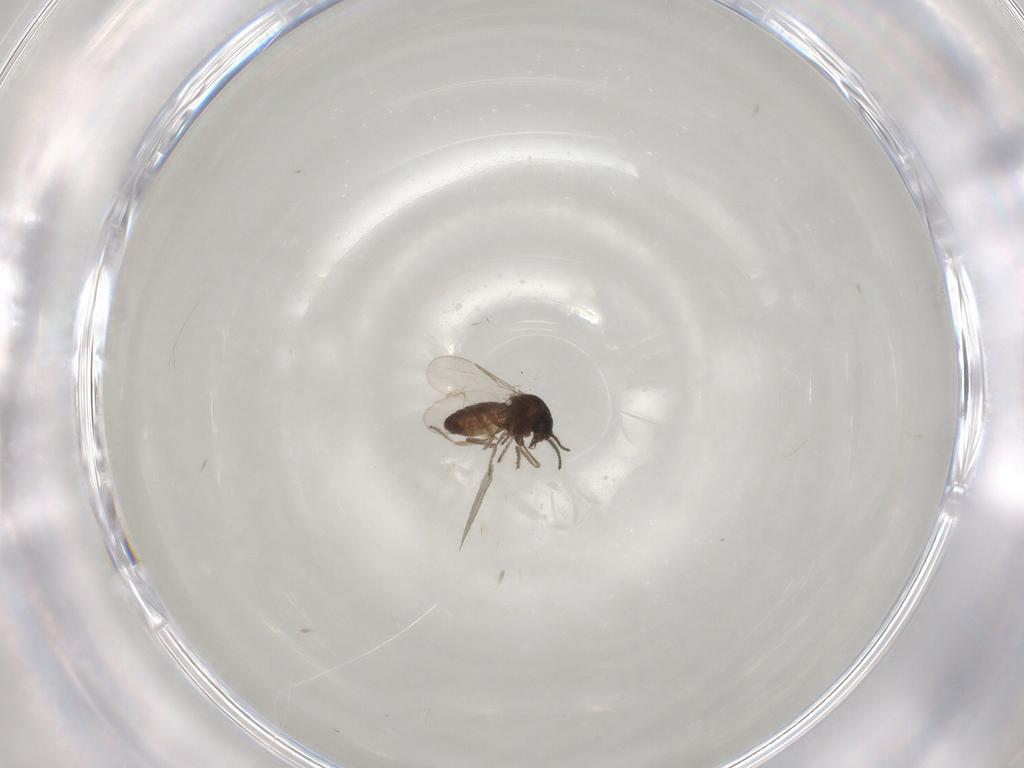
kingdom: Animalia
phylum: Arthropoda
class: Insecta
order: Diptera
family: Ceratopogonidae
